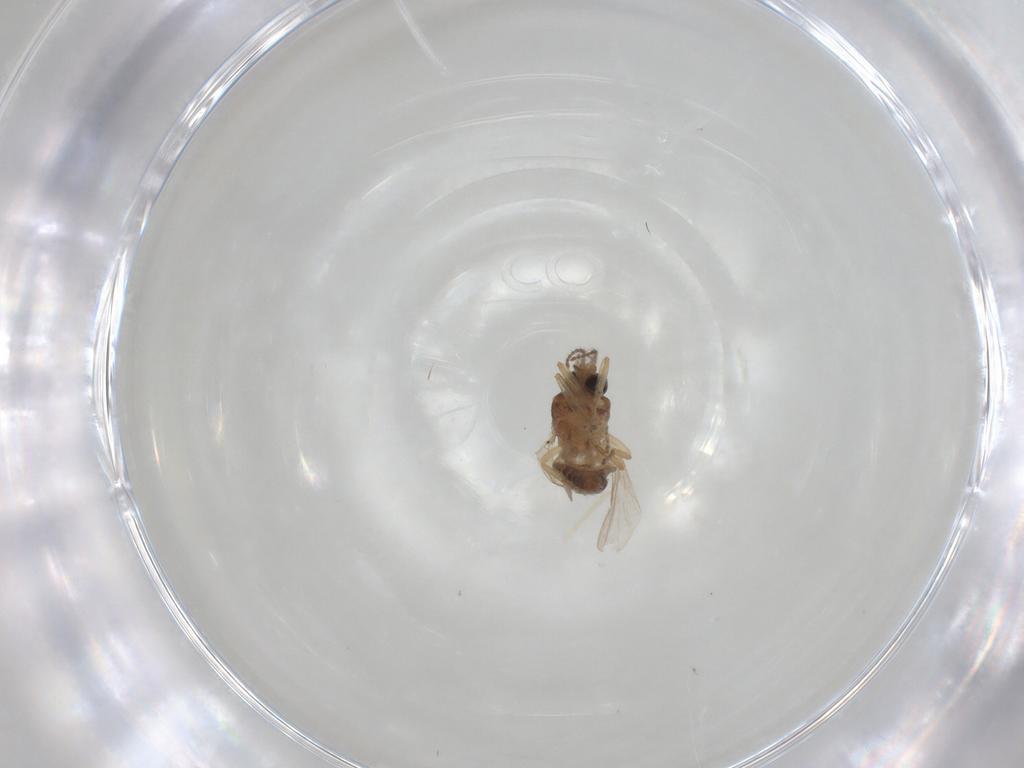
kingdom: Animalia
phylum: Arthropoda
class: Insecta
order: Diptera
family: Ceratopogonidae
